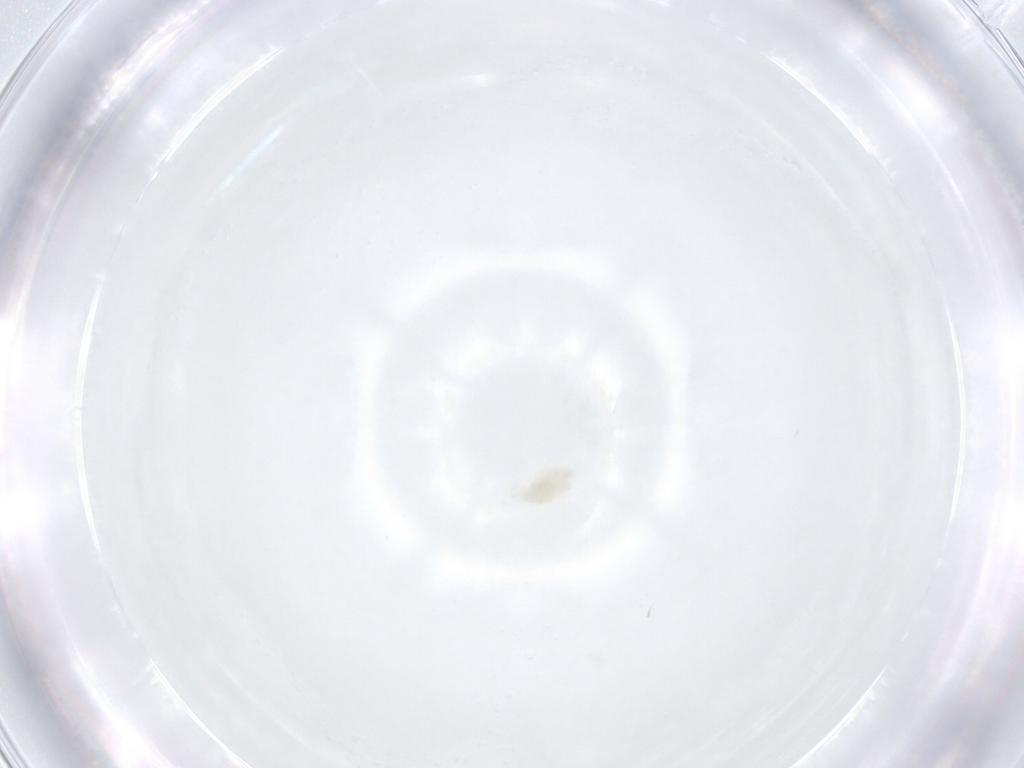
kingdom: Animalia
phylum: Arthropoda
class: Arachnida
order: Trombidiformes
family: Eupodidae
